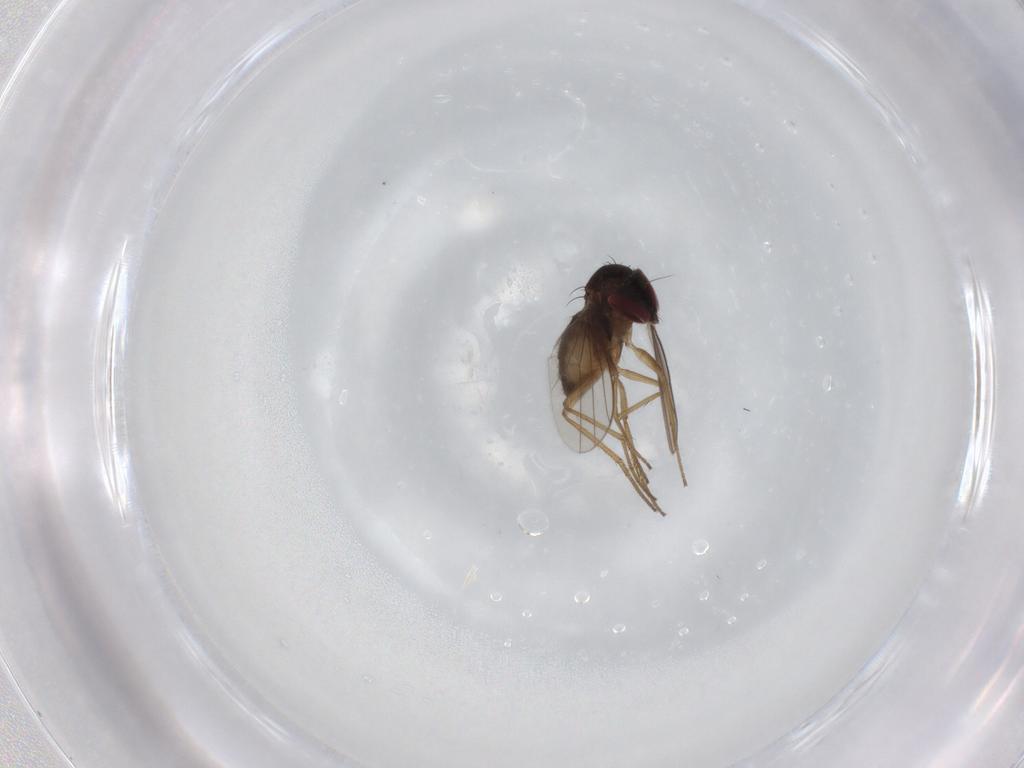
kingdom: Animalia
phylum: Arthropoda
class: Insecta
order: Diptera
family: Dolichopodidae
